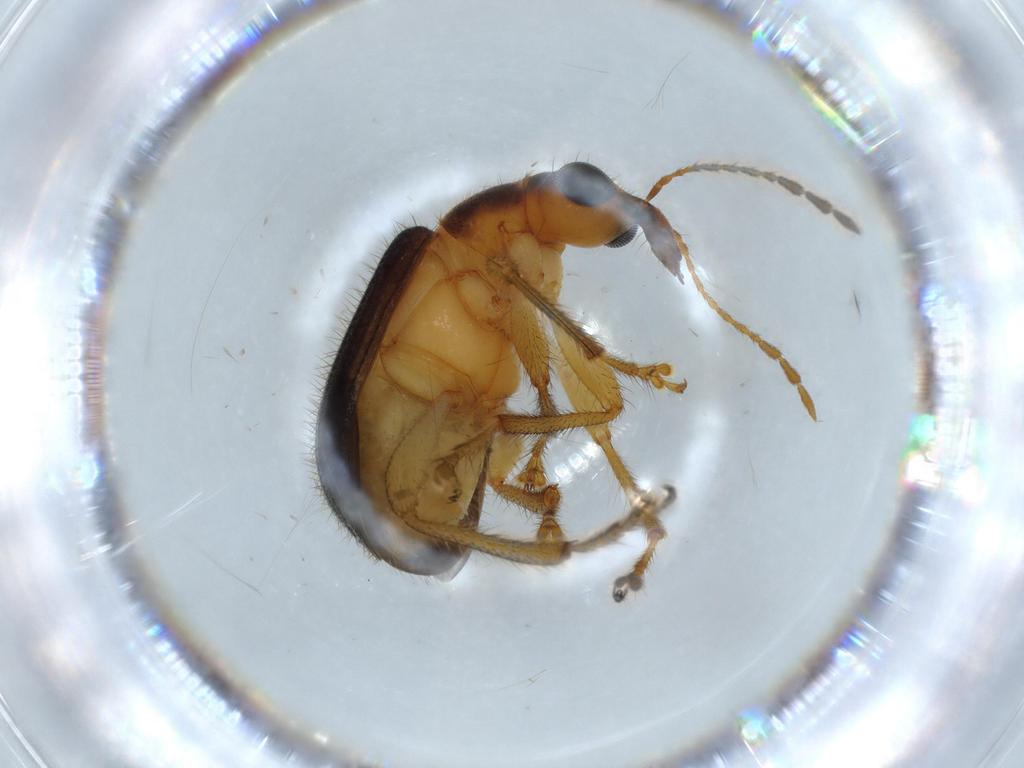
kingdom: Animalia
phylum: Arthropoda
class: Insecta
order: Coleoptera
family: Attelabidae
